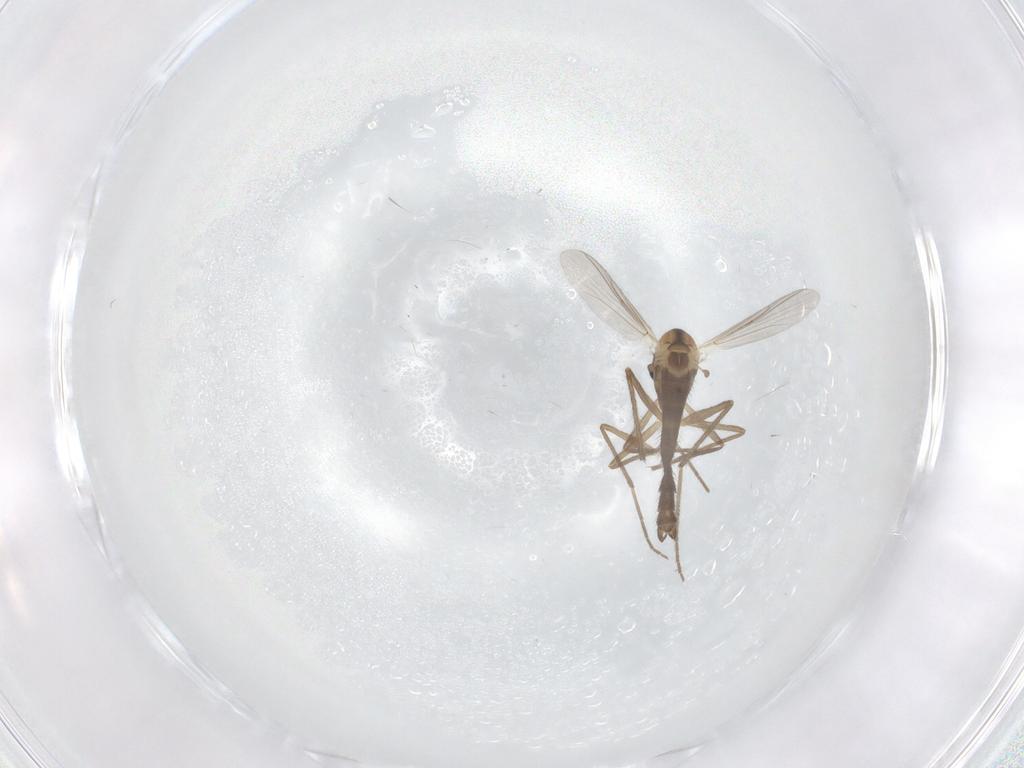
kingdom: Animalia
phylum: Arthropoda
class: Insecta
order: Diptera
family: Chironomidae
